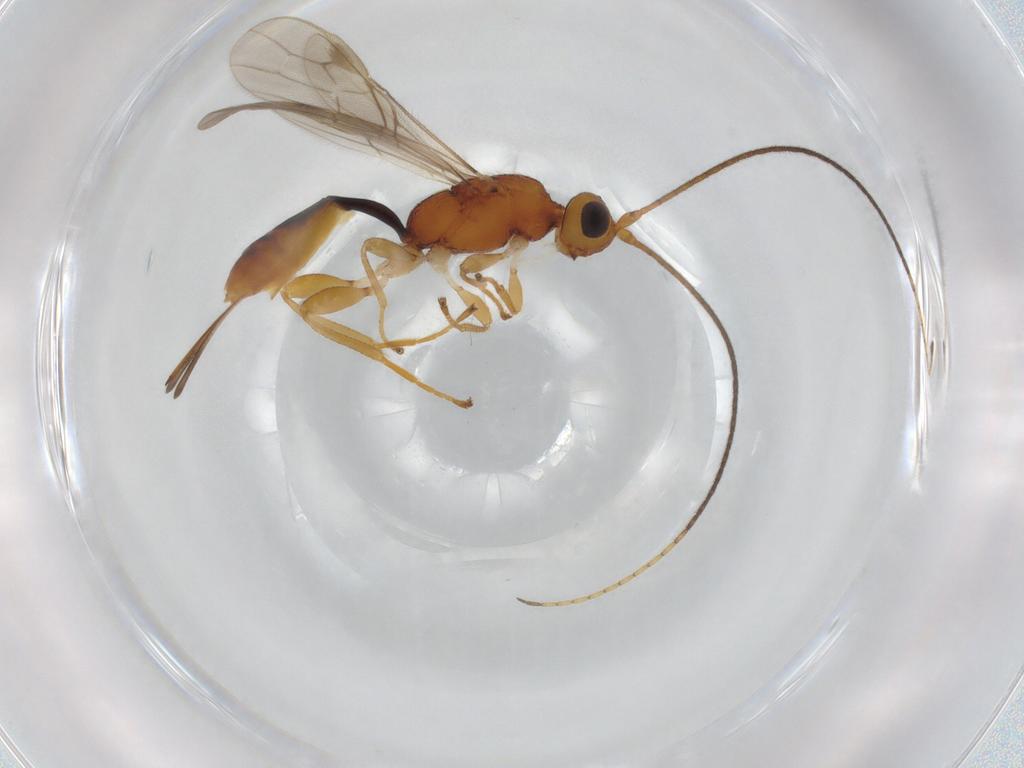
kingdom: Animalia
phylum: Arthropoda
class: Insecta
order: Hymenoptera
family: Braconidae
